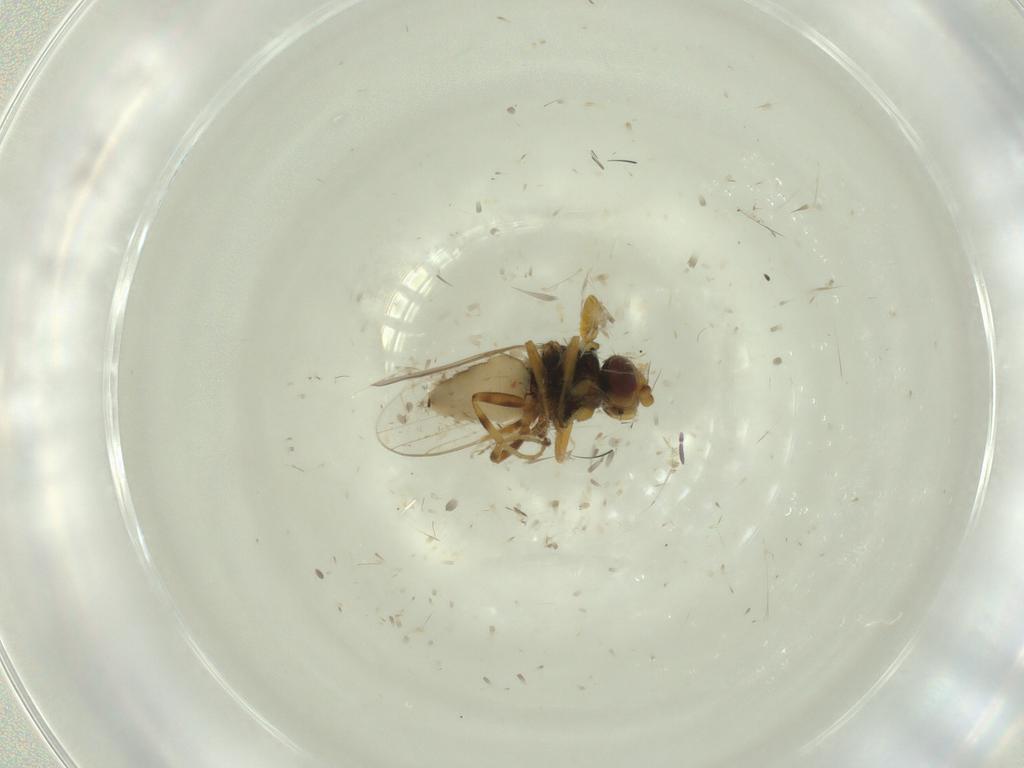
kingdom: Animalia
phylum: Arthropoda
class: Insecta
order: Diptera
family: Chloropidae
